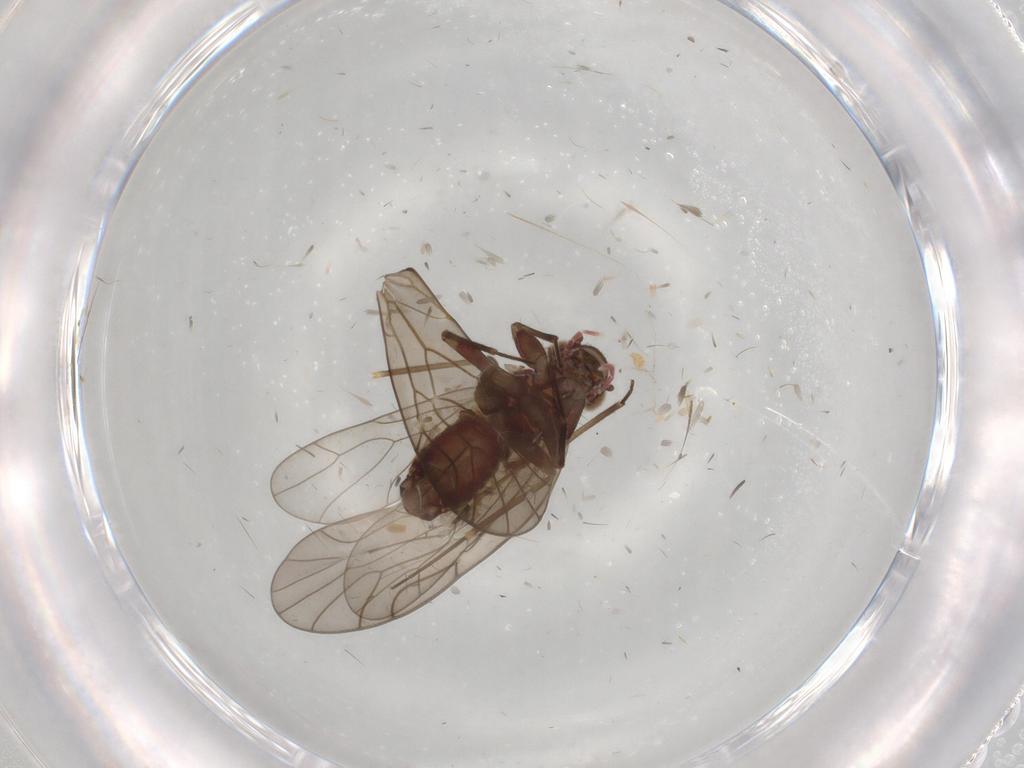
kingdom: Animalia
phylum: Arthropoda
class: Insecta
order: Psocodea
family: Philotarsidae
